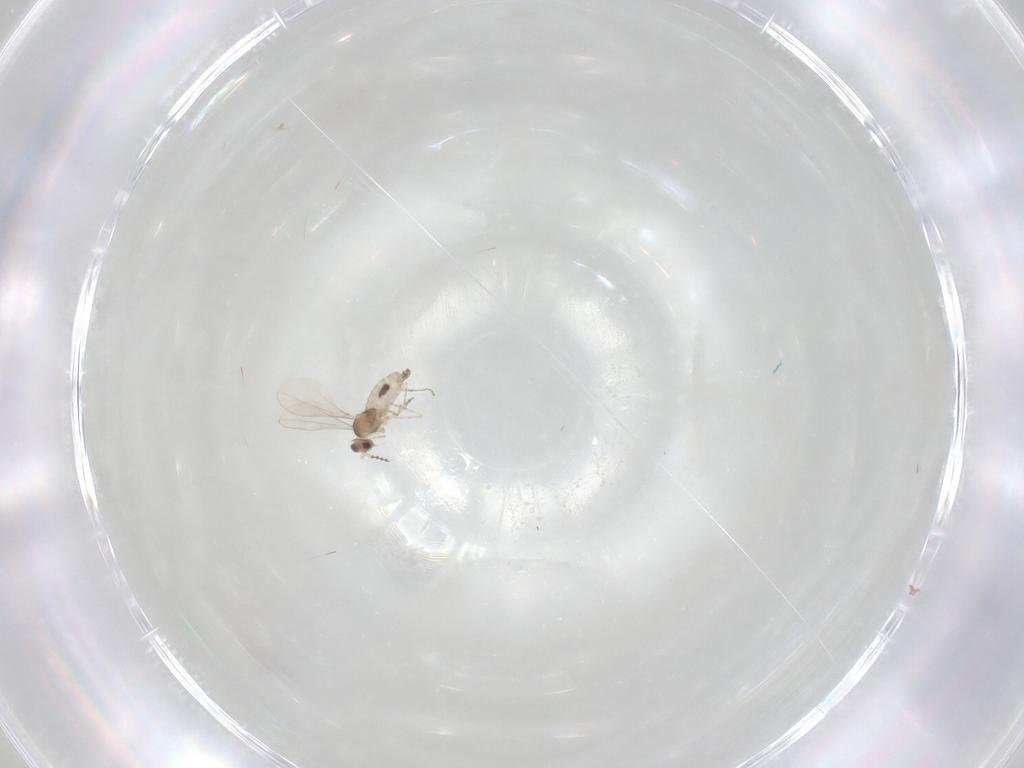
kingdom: Animalia
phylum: Arthropoda
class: Insecta
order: Diptera
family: Cecidomyiidae
